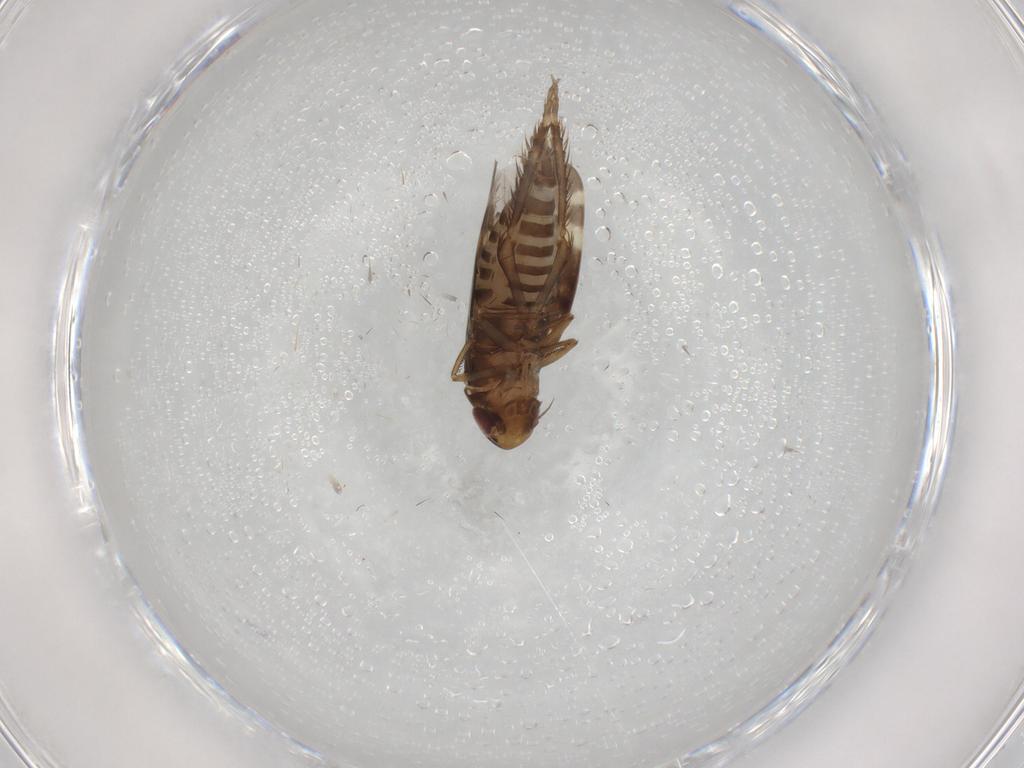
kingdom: Animalia
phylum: Arthropoda
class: Insecta
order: Hemiptera
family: Cicadellidae
